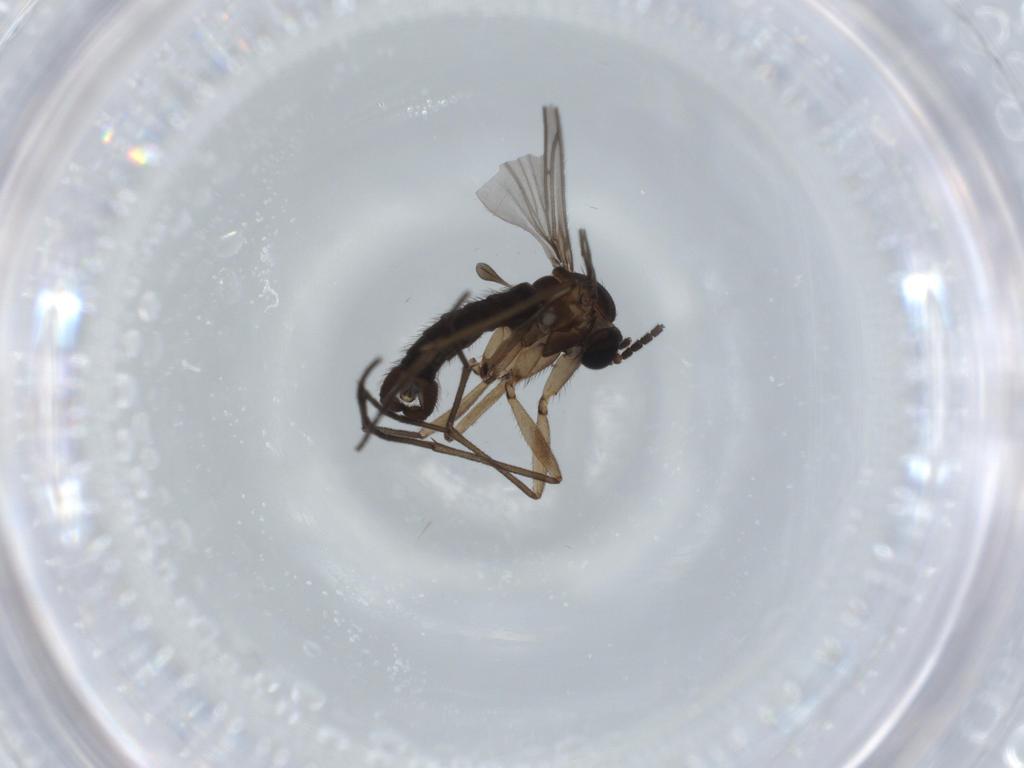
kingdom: Animalia
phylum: Arthropoda
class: Insecta
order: Diptera
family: Sciaridae
